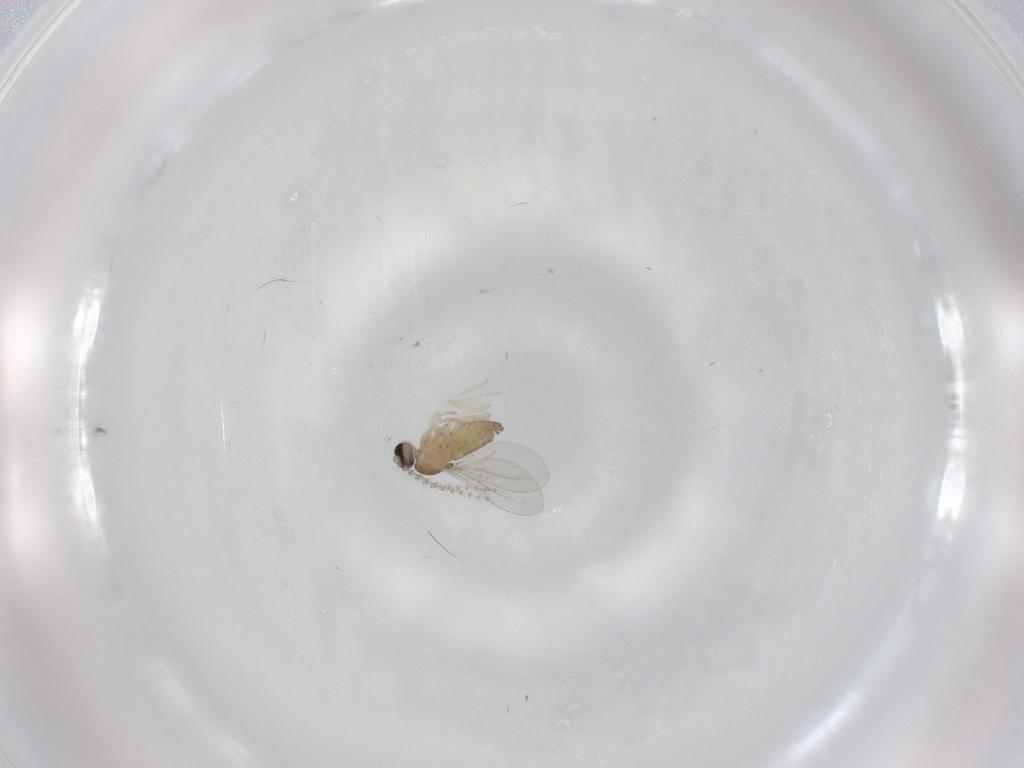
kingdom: Animalia
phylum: Arthropoda
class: Insecta
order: Diptera
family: Cecidomyiidae
